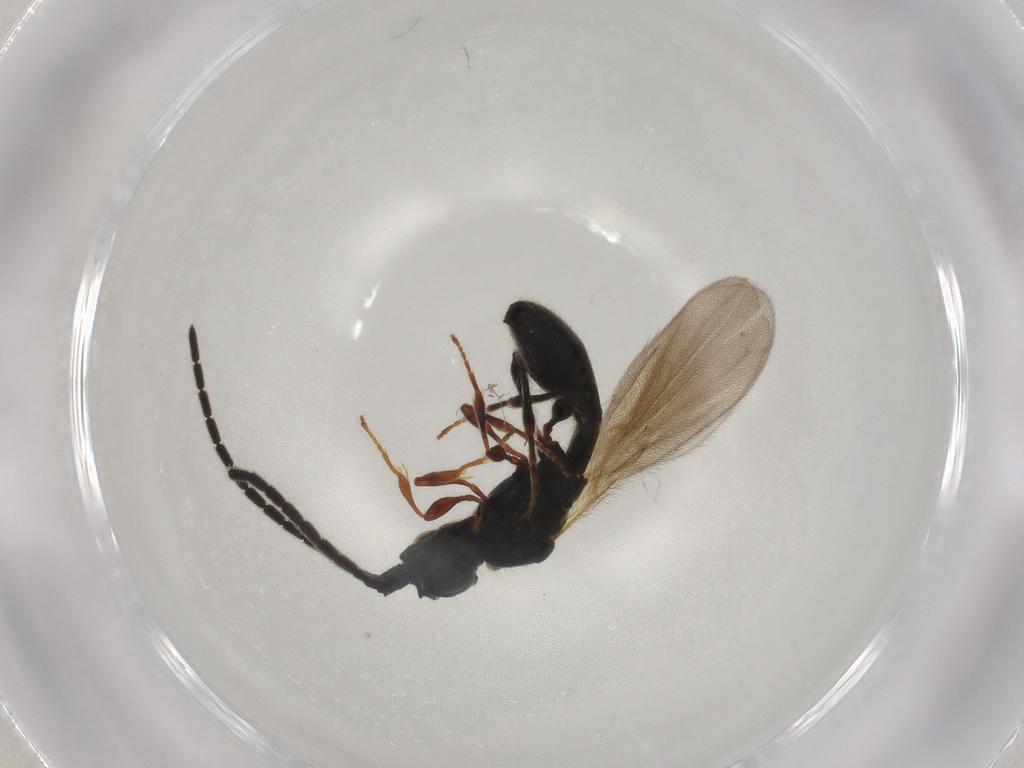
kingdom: Animalia
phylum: Arthropoda
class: Insecta
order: Hymenoptera
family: Diapriidae
